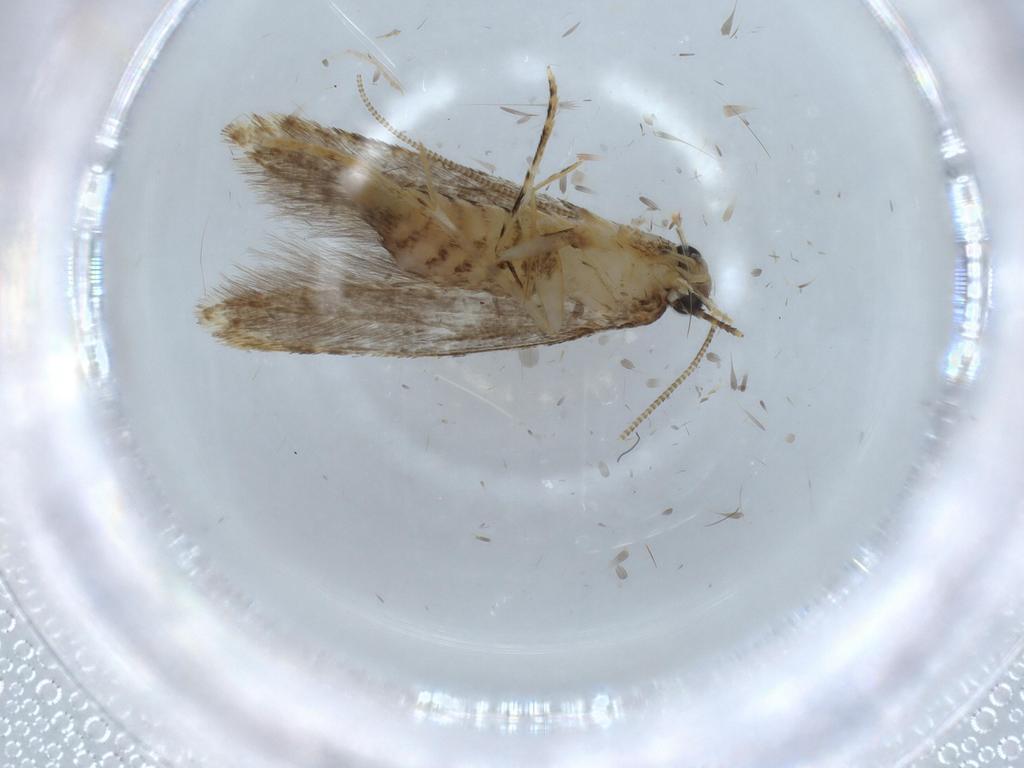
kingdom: Animalia
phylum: Arthropoda
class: Insecta
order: Lepidoptera
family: Tineidae
